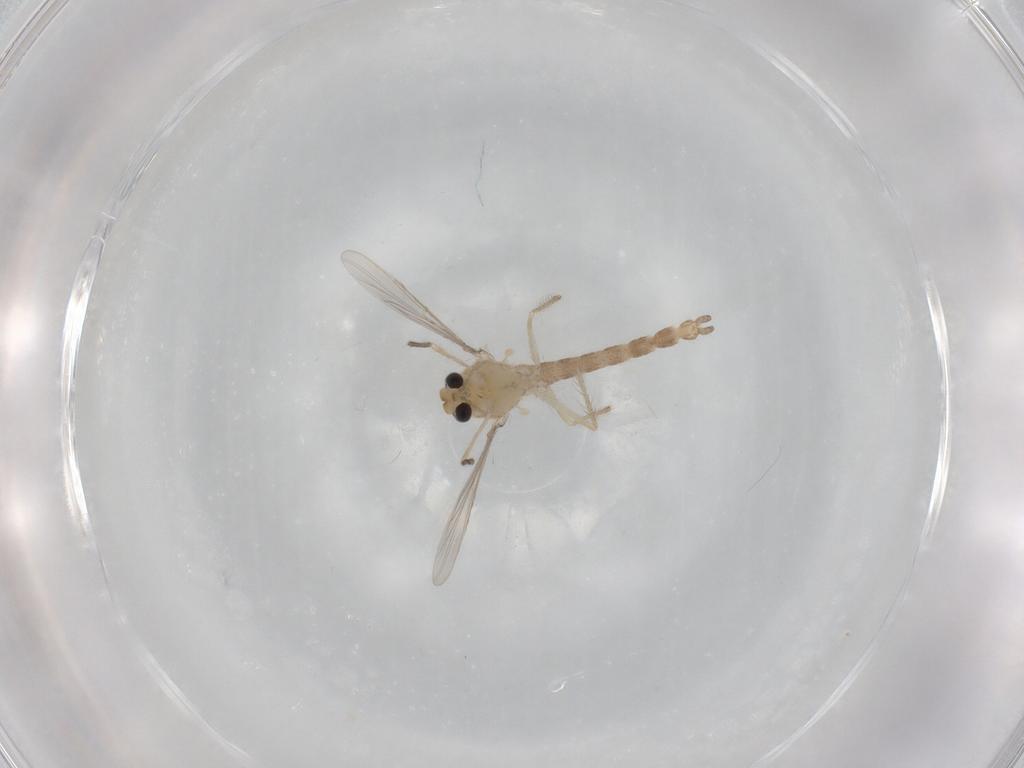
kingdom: Animalia
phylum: Arthropoda
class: Insecta
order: Diptera
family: Chironomidae
